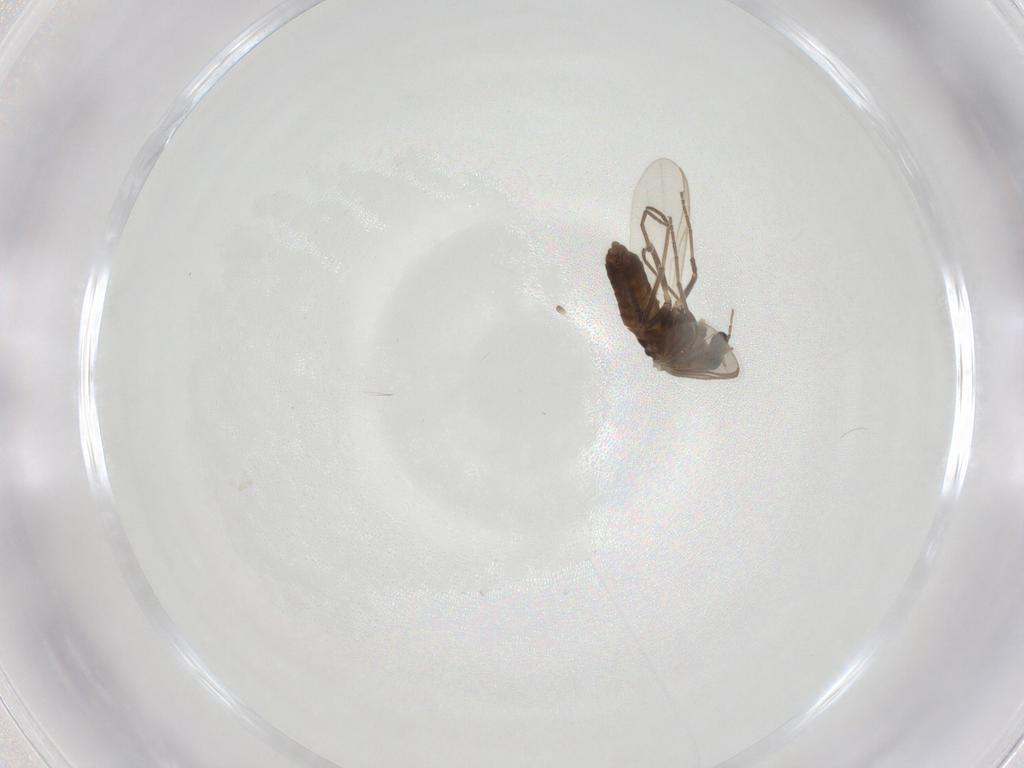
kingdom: Animalia
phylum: Arthropoda
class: Insecta
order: Diptera
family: Chironomidae
